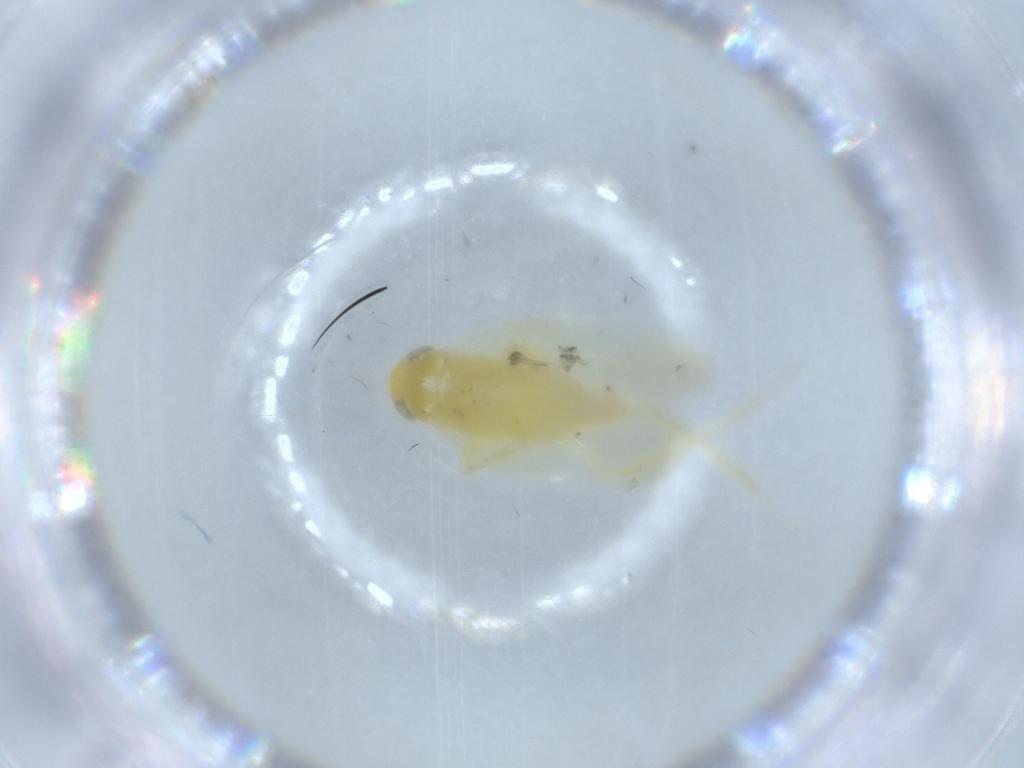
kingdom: Animalia
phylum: Arthropoda
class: Insecta
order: Hemiptera
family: Cicadellidae
